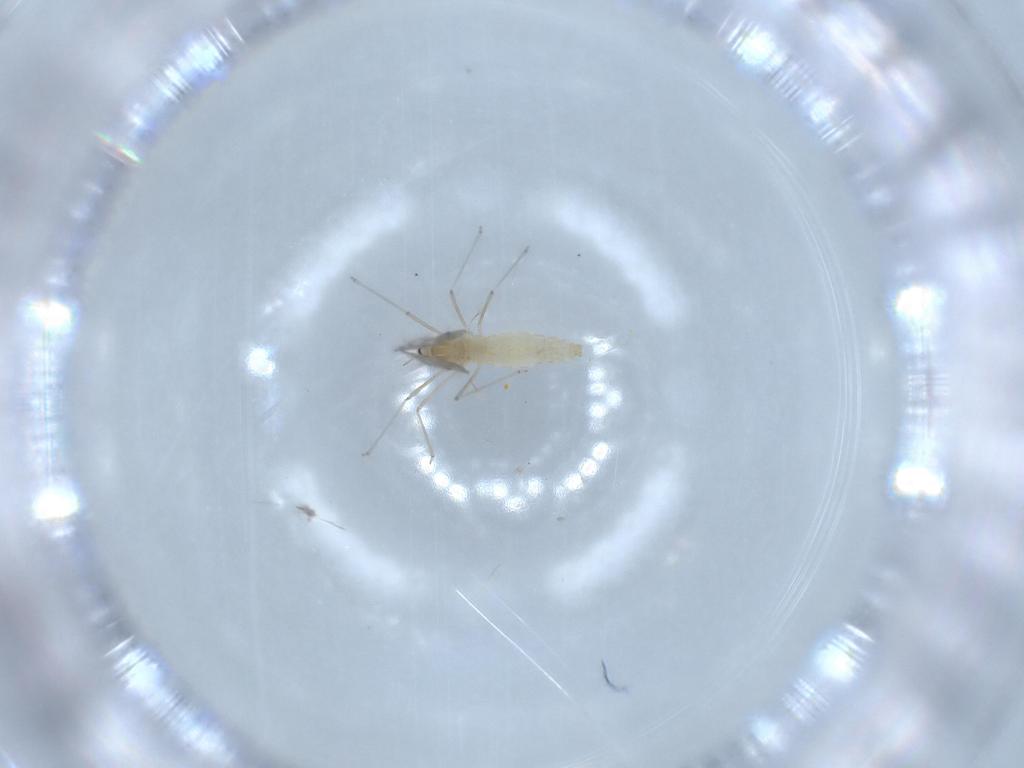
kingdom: Animalia
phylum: Arthropoda
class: Insecta
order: Diptera
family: Cecidomyiidae
